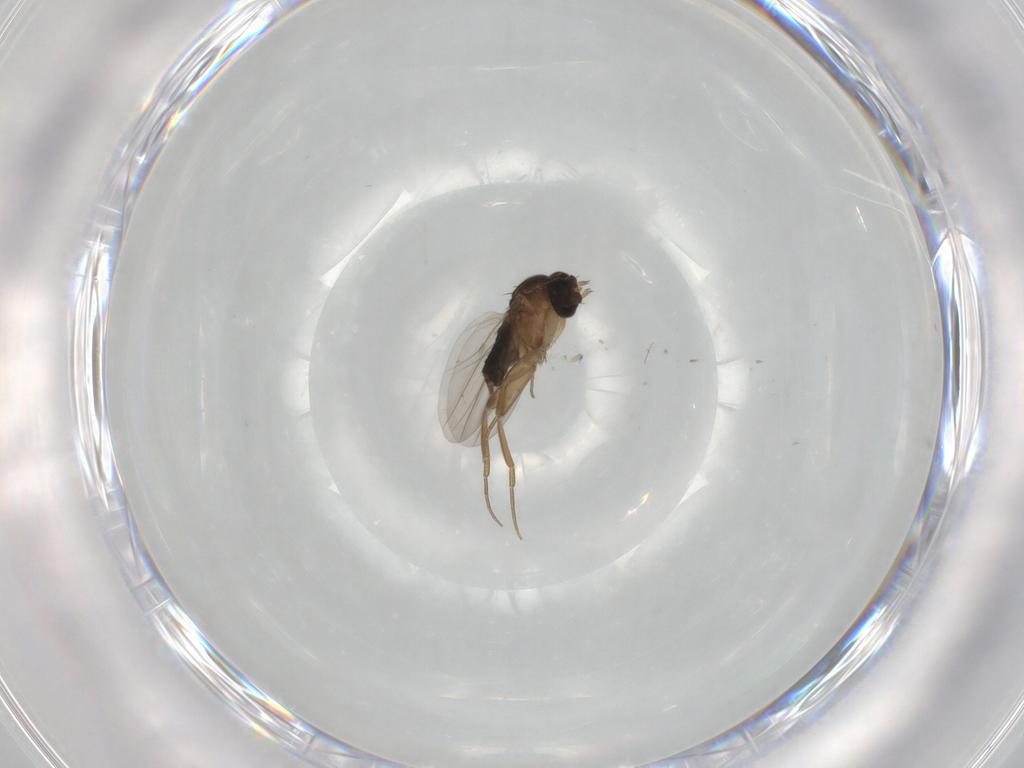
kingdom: Animalia
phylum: Arthropoda
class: Insecta
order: Diptera
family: Phoridae
